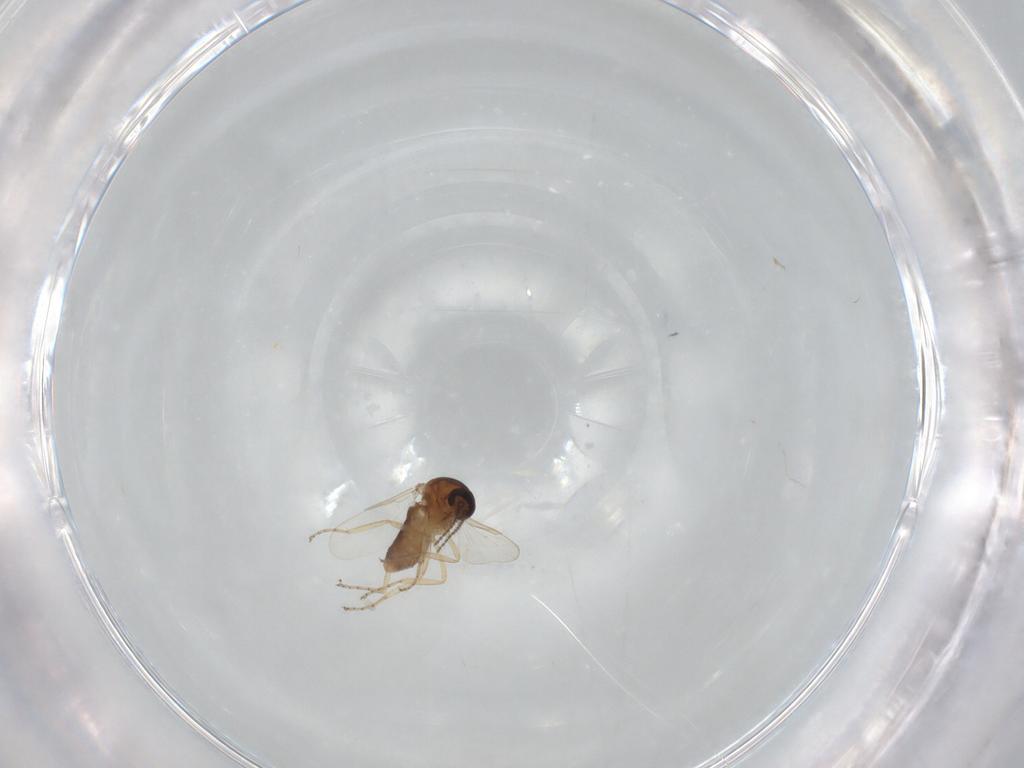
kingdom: Animalia
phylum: Arthropoda
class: Insecta
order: Diptera
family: Ceratopogonidae
